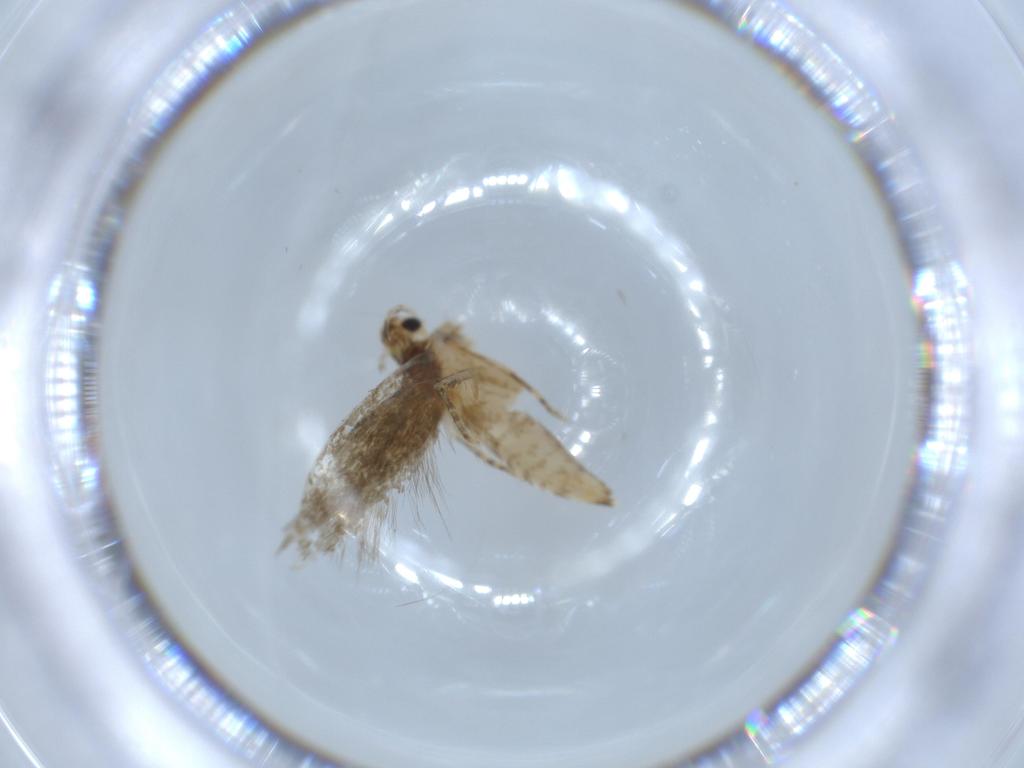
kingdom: Animalia
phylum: Arthropoda
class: Insecta
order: Lepidoptera
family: Tineidae
